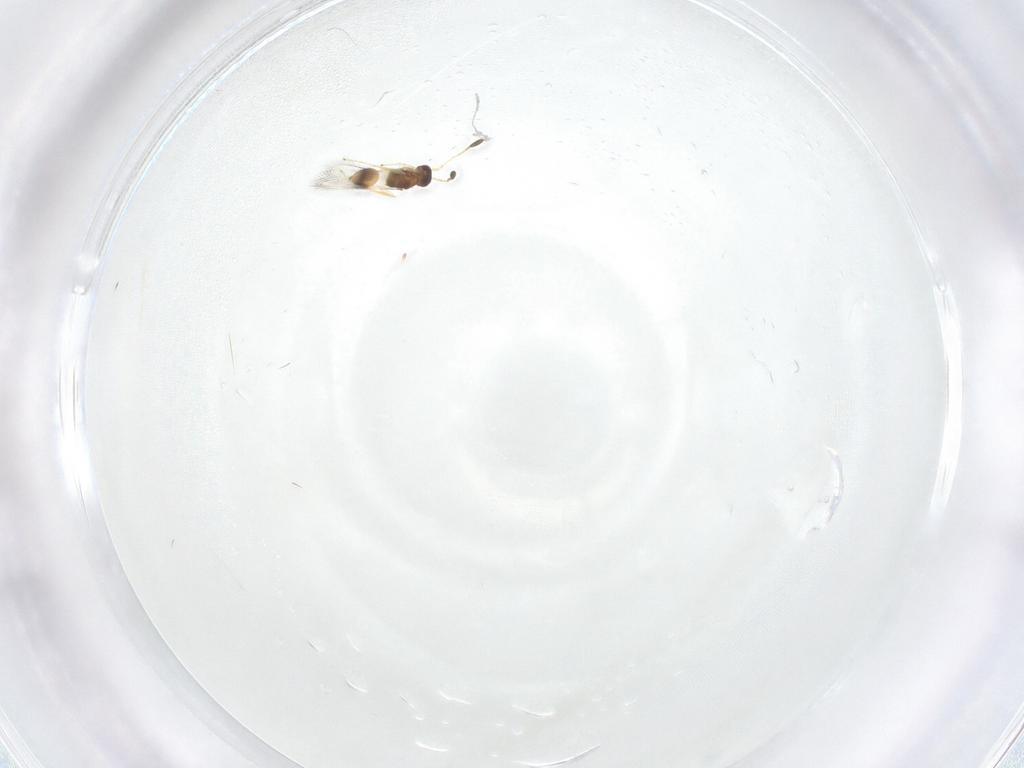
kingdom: Animalia
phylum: Arthropoda
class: Insecta
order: Hymenoptera
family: Mymaridae
